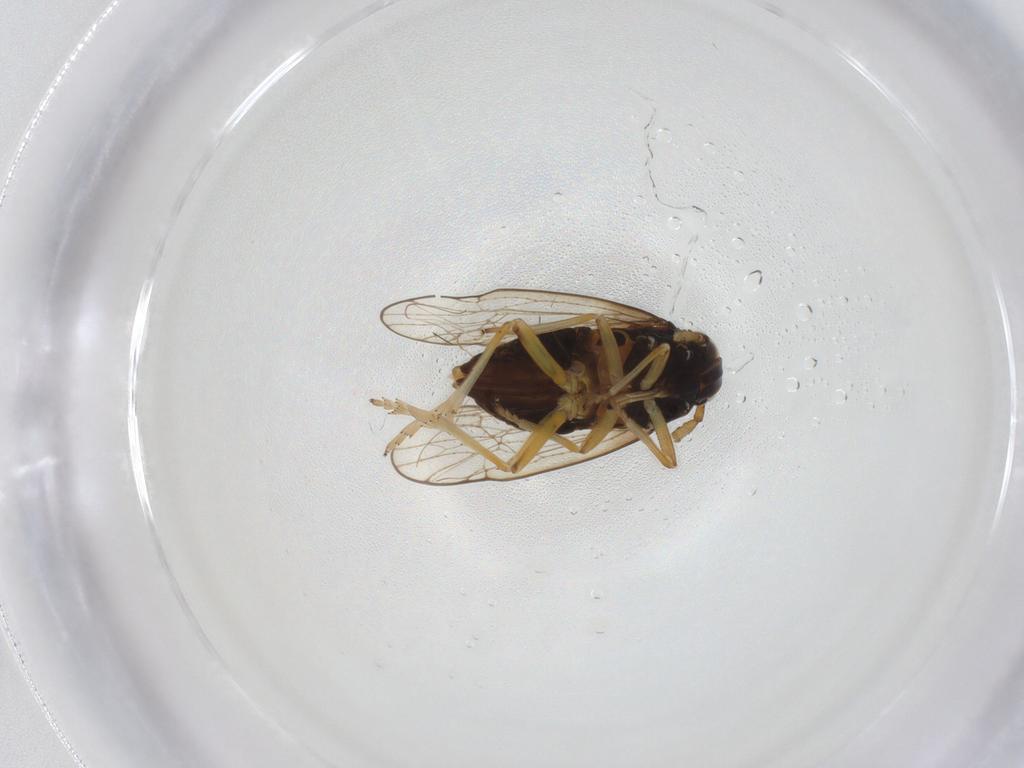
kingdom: Animalia
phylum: Arthropoda
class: Insecta
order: Hemiptera
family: Delphacidae
